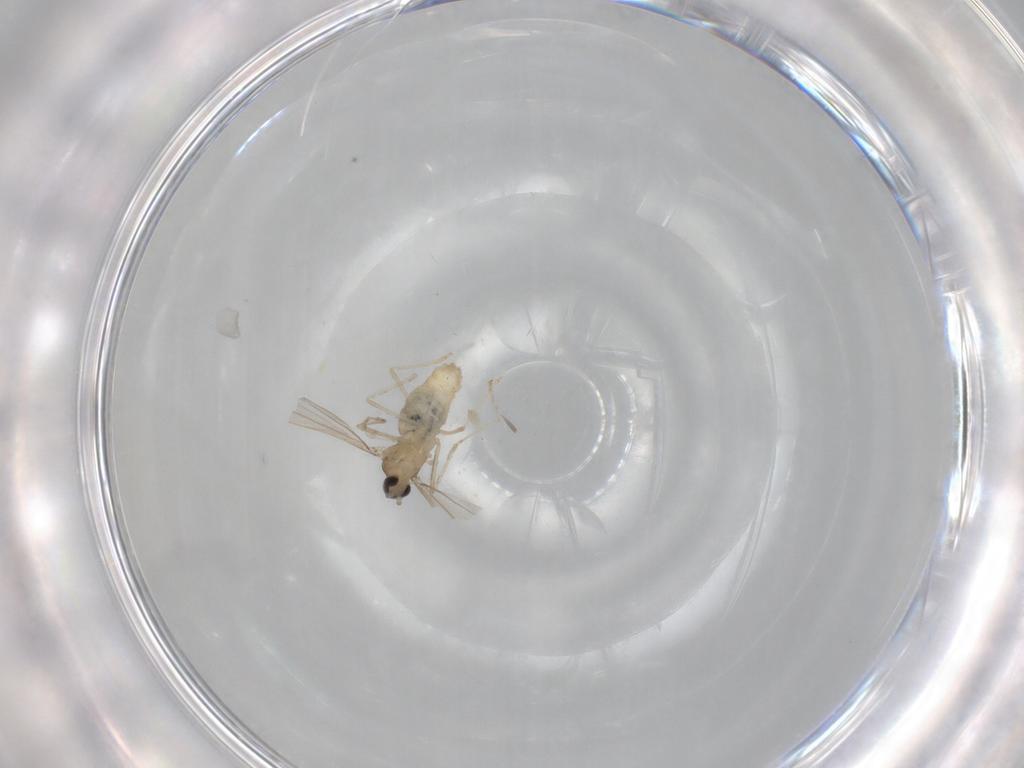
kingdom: Animalia
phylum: Arthropoda
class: Insecta
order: Diptera
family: Cecidomyiidae
